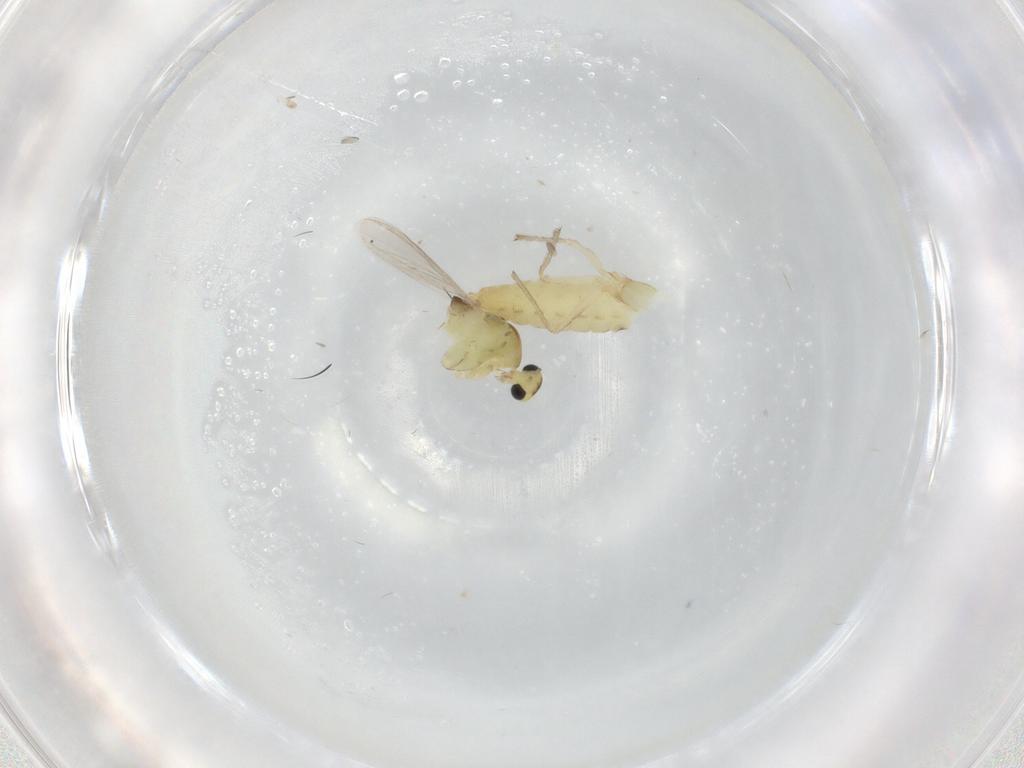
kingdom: Animalia
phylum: Arthropoda
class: Insecta
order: Diptera
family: Chironomidae
